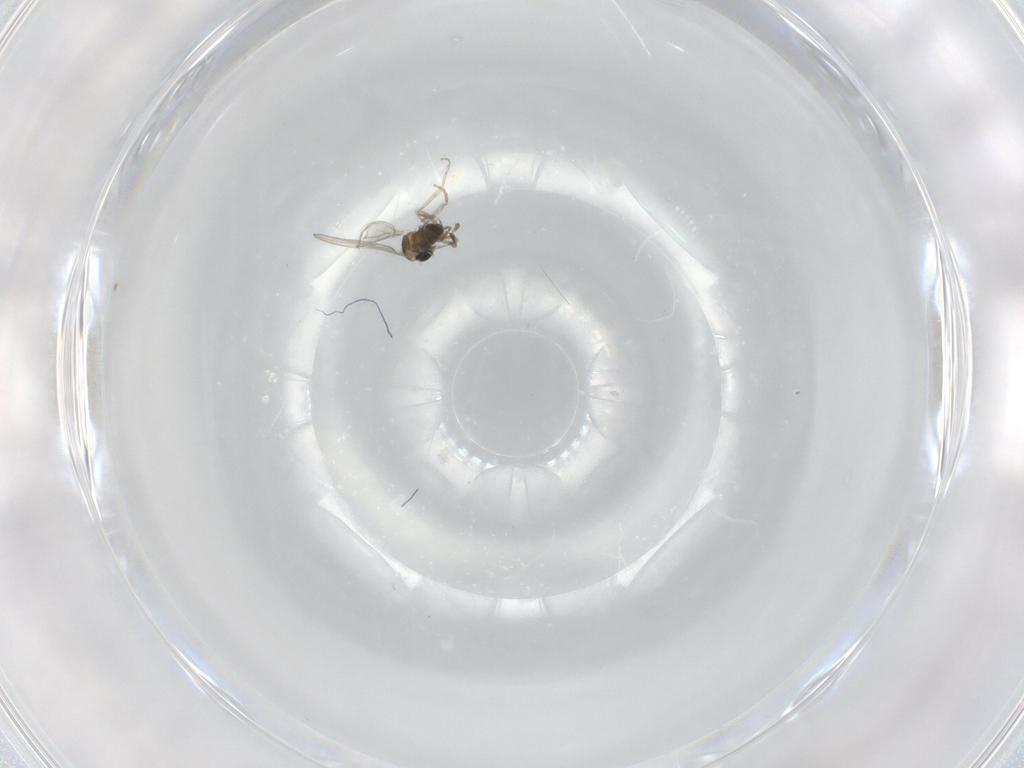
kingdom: Animalia
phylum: Arthropoda
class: Insecta
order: Diptera
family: Cecidomyiidae
